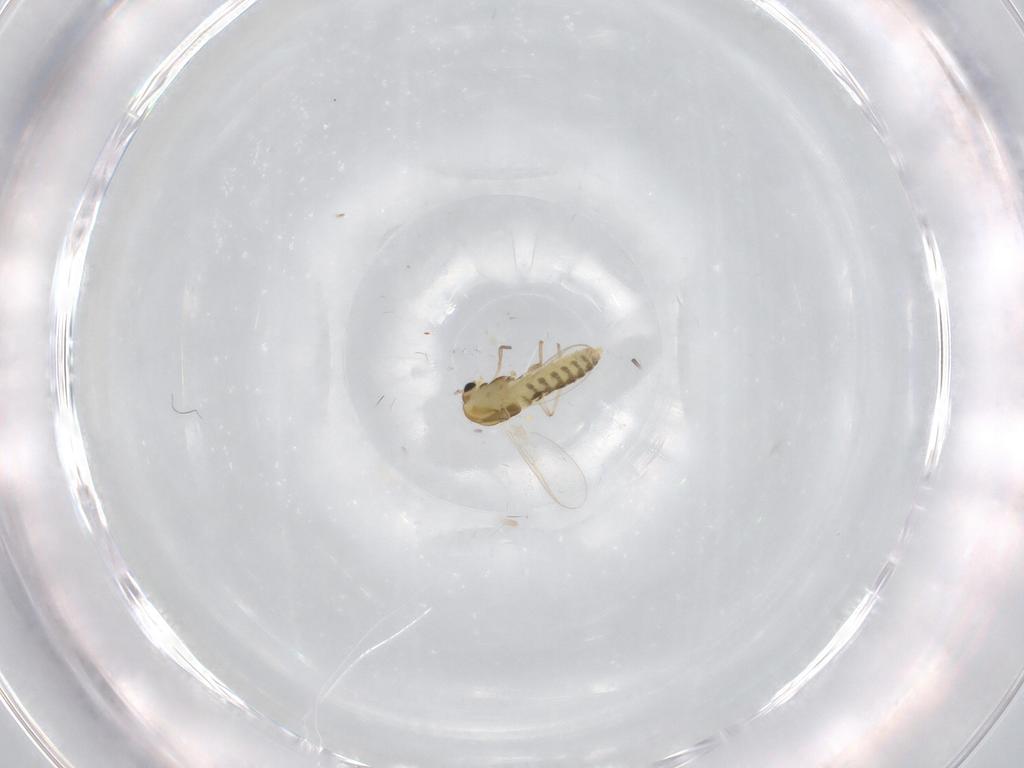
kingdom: Animalia
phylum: Arthropoda
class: Insecta
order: Diptera
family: Chironomidae
